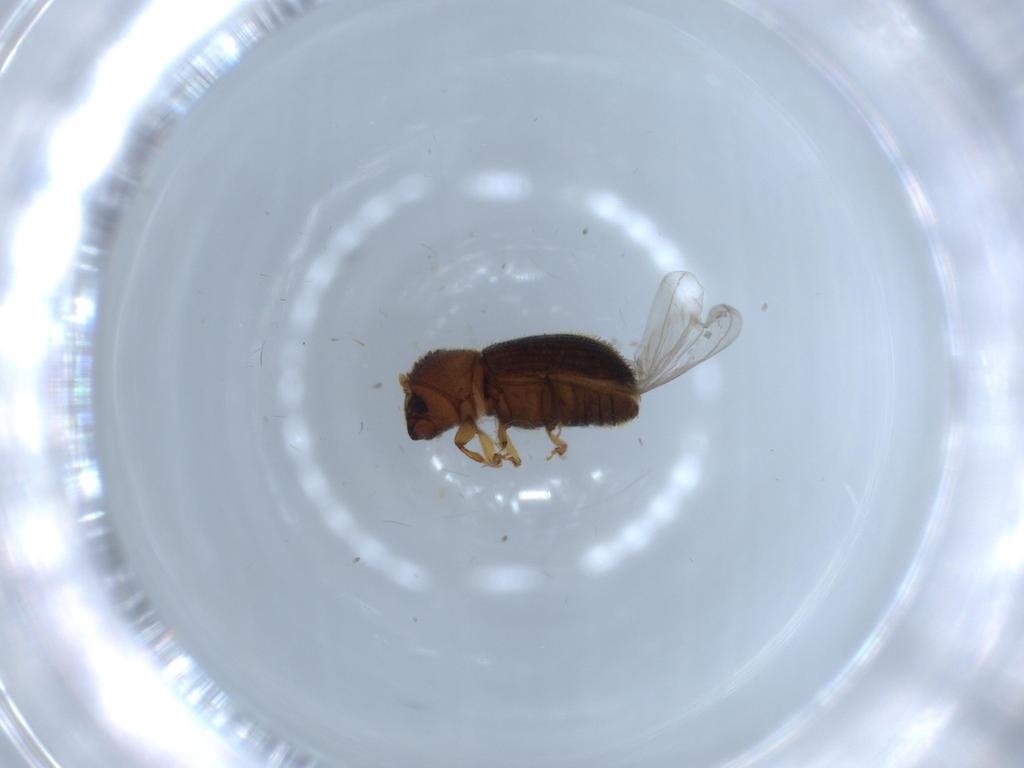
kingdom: Animalia
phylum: Arthropoda
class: Insecta
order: Coleoptera
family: Curculionidae
